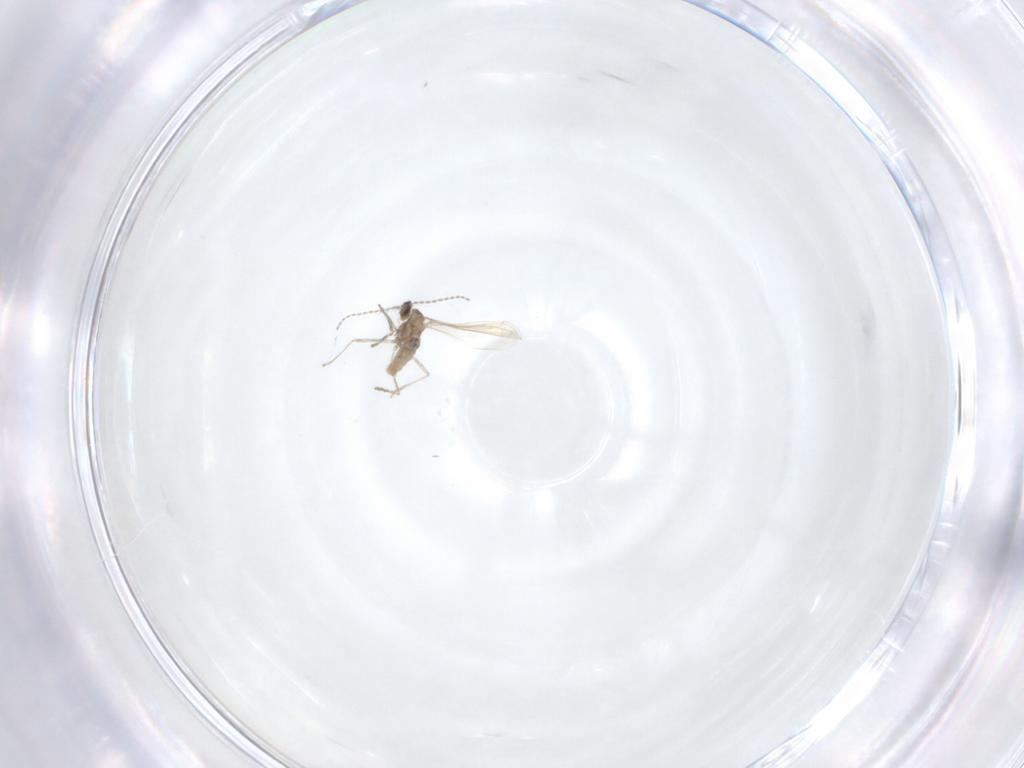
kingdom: Animalia
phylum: Arthropoda
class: Insecta
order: Diptera
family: Cecidomyiidae
